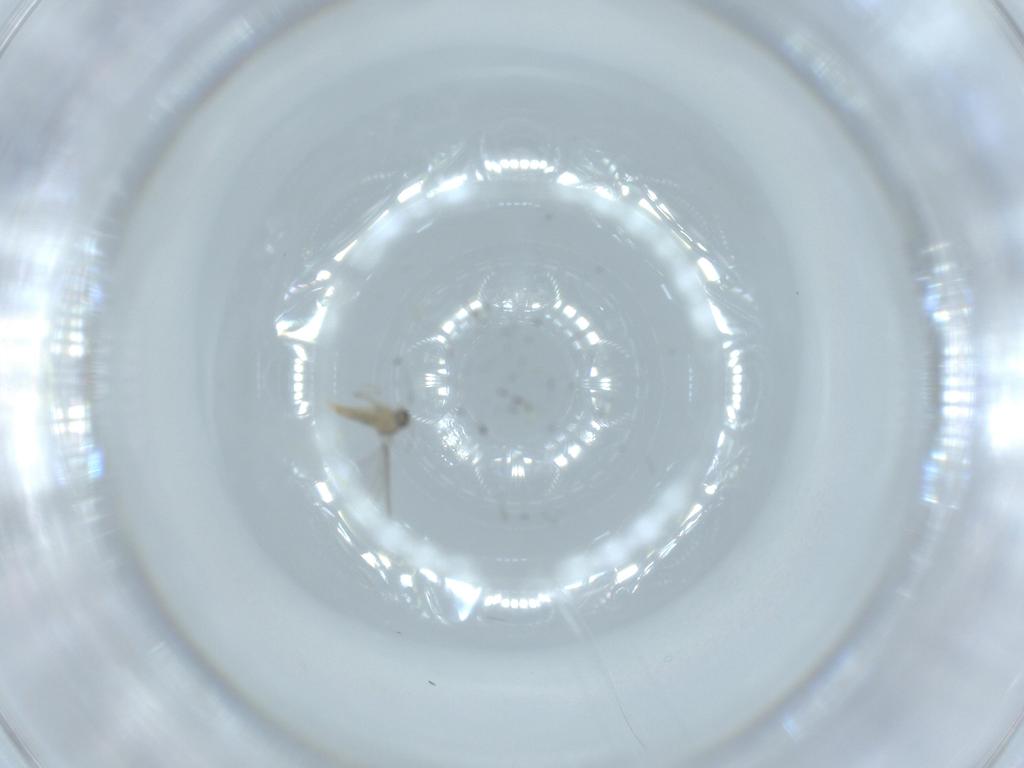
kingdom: Animalia
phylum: Arthropoda
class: Insecta
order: Diptera
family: Cecidomyiidae
